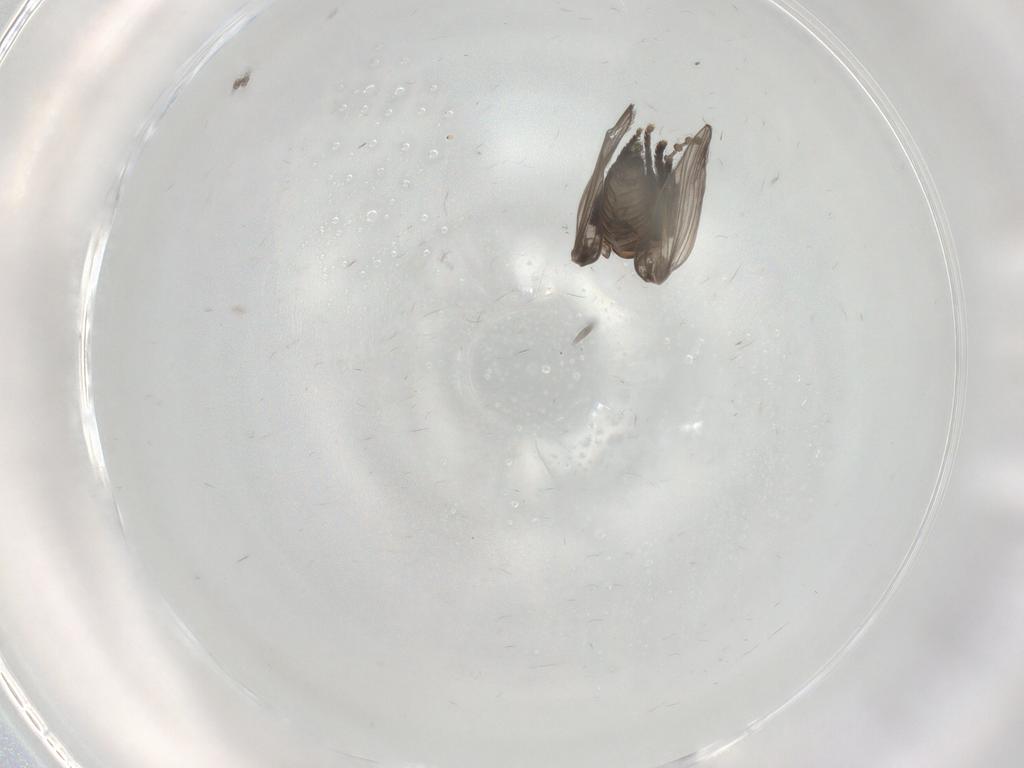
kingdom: Animalia
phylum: Arthropoda
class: Insecta
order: Diptera
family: Psychodidae
